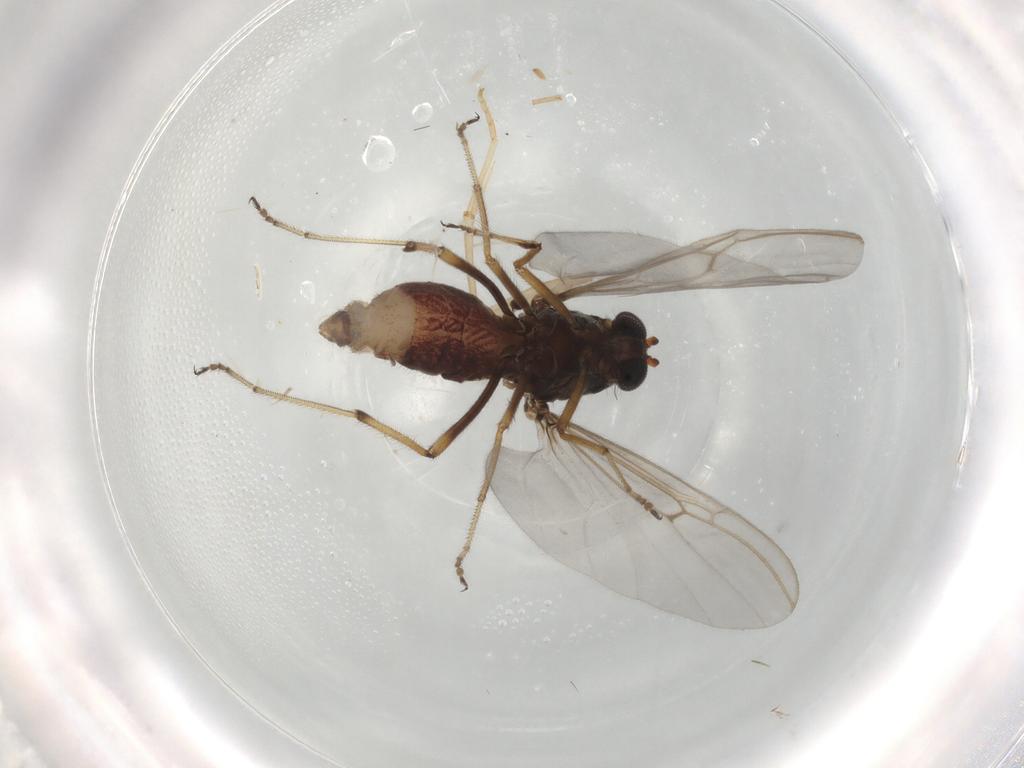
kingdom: Animalia
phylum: Arthropoda
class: Insecta
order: Diptera
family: Ceratopogonidae
